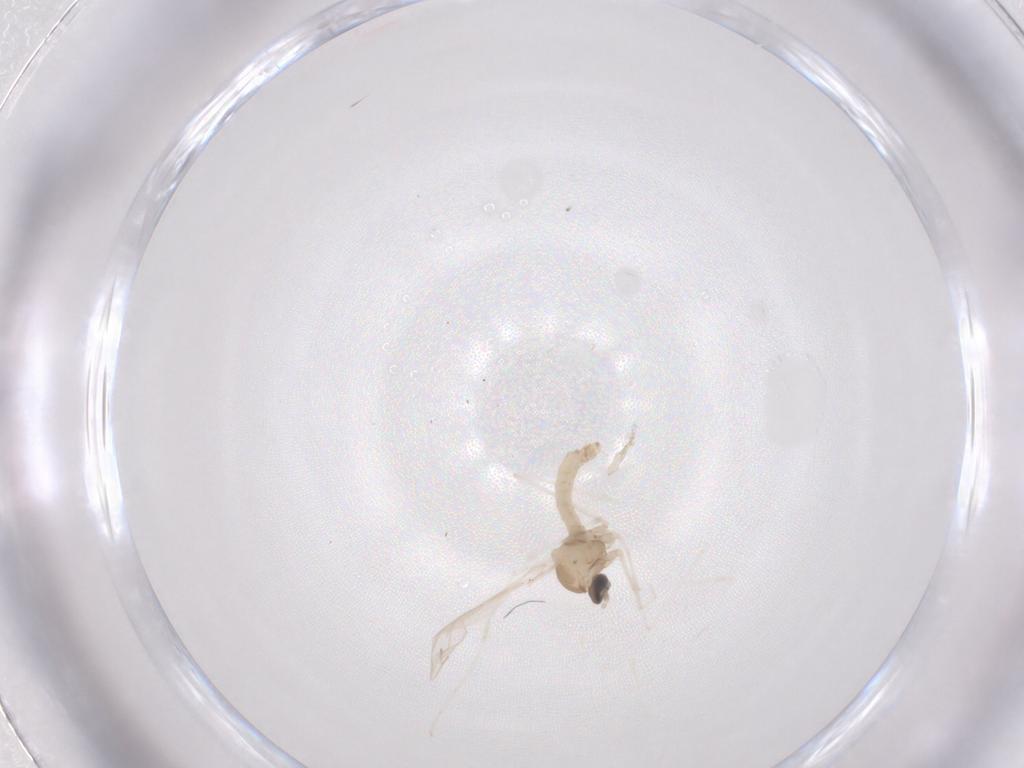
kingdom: Animalia
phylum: Arthropoda
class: Insecta
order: Diptera
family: Cecidomyiidae
